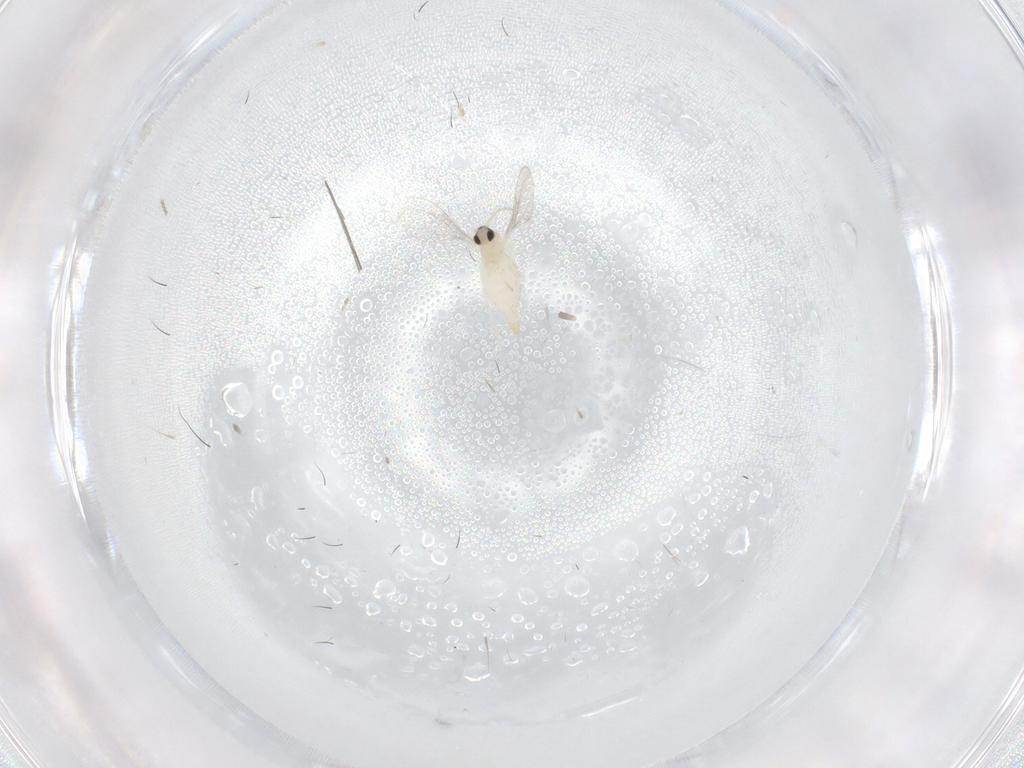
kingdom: Animalia
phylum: Arthropoda
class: Insecta
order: Diptera
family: Cecidomyiidae
